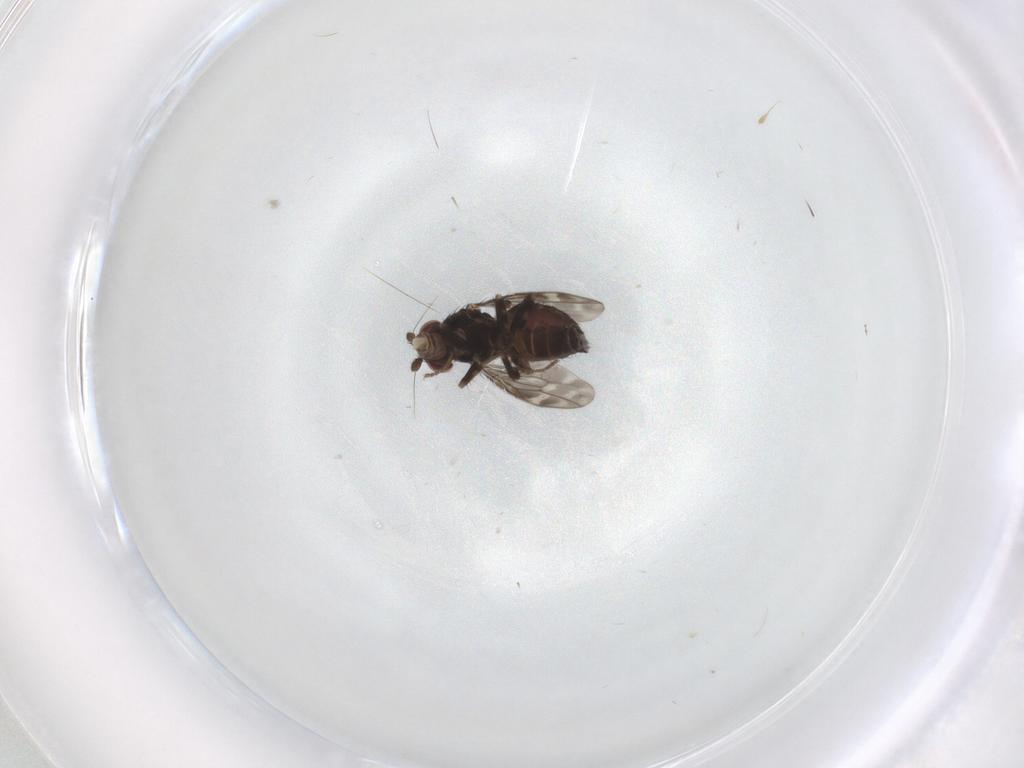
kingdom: Animalia
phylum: Arthropoda
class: Insecta
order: Diptera
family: Sphaeroceridae
